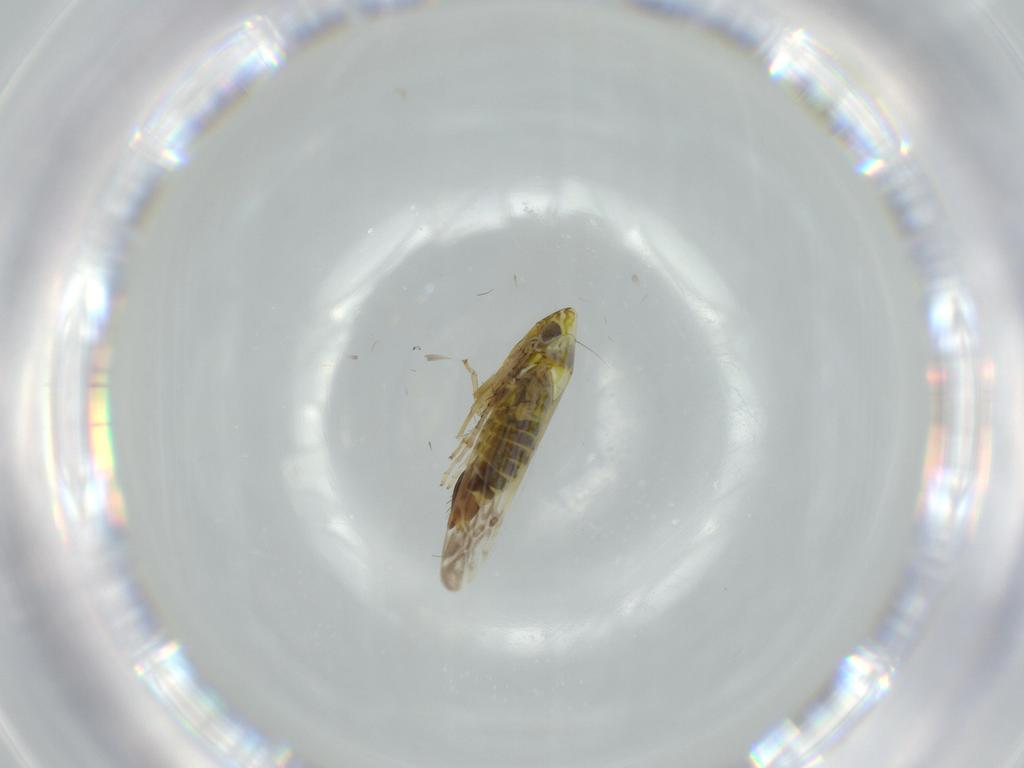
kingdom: Animalia
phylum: Arthropoda
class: Insecta
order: Hemiptera
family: Cicadellidae
